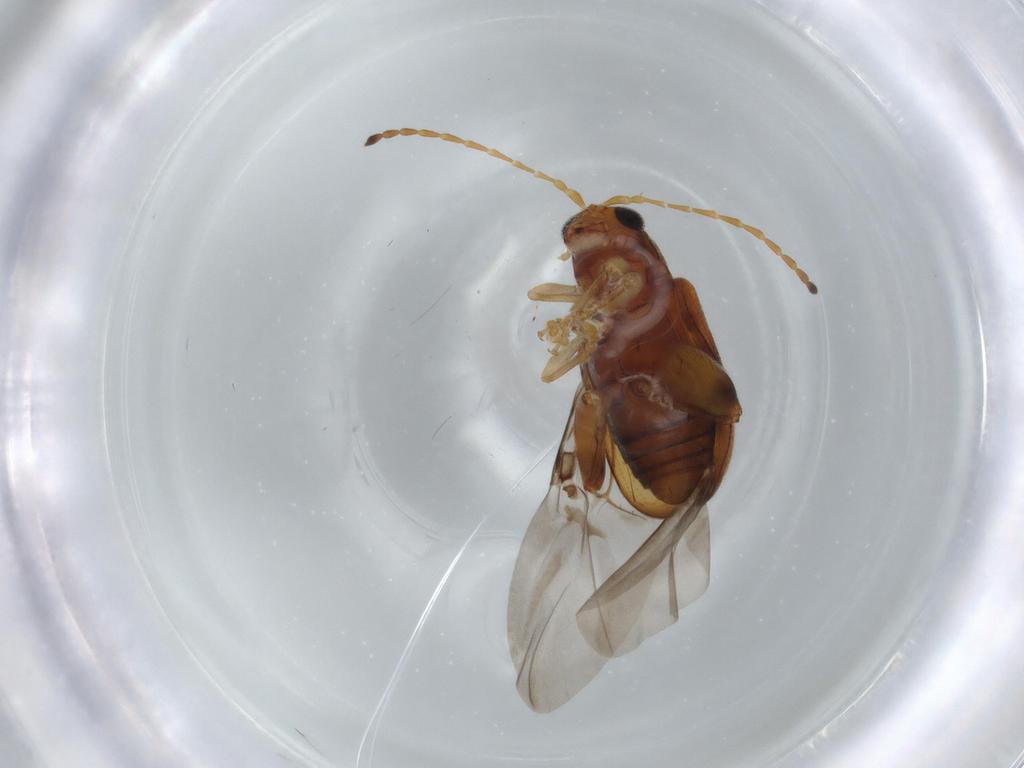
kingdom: Animalia
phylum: Arthropoda
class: Insecta
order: Coleoptera
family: Chrysomelidae
